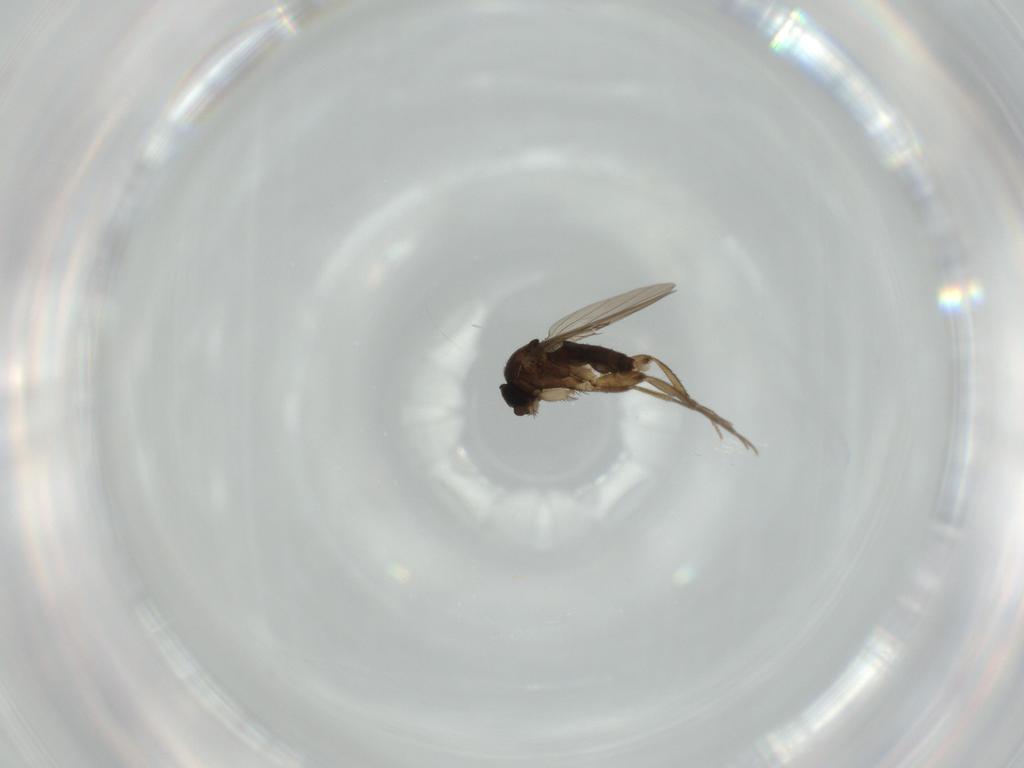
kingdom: Animalia
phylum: Arthropoda
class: Insecta
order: Diptera
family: Phoridae
